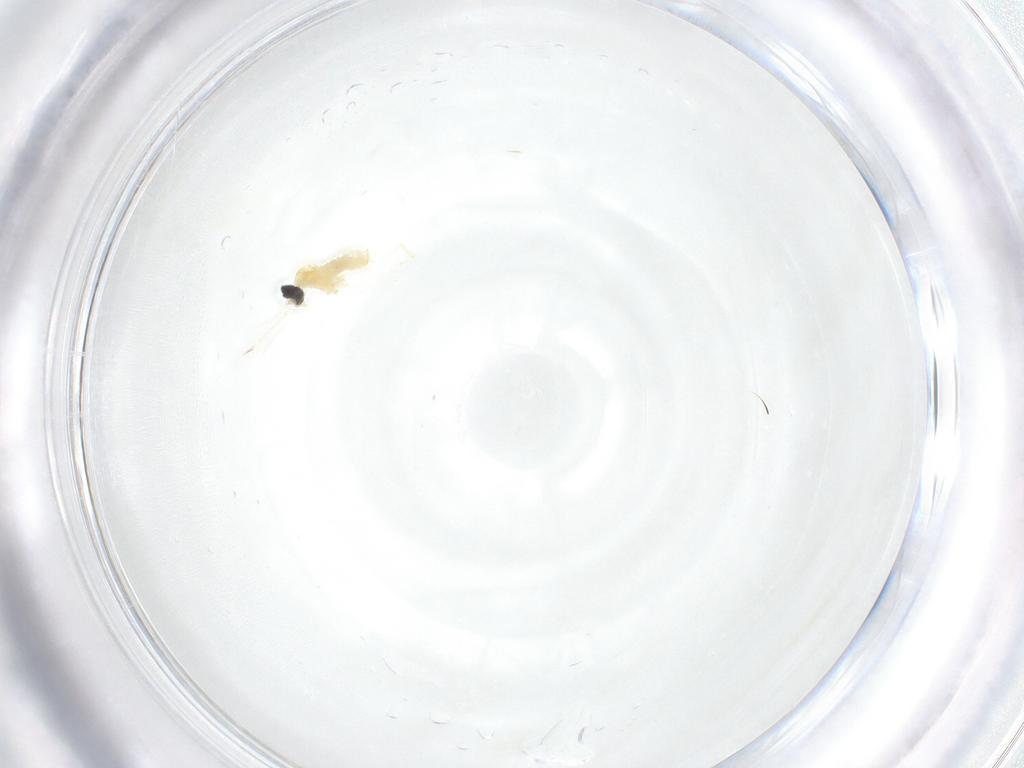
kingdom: Animalia
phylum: Arthropoda
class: Insecta
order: Diptera
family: Cecidomyiidae
